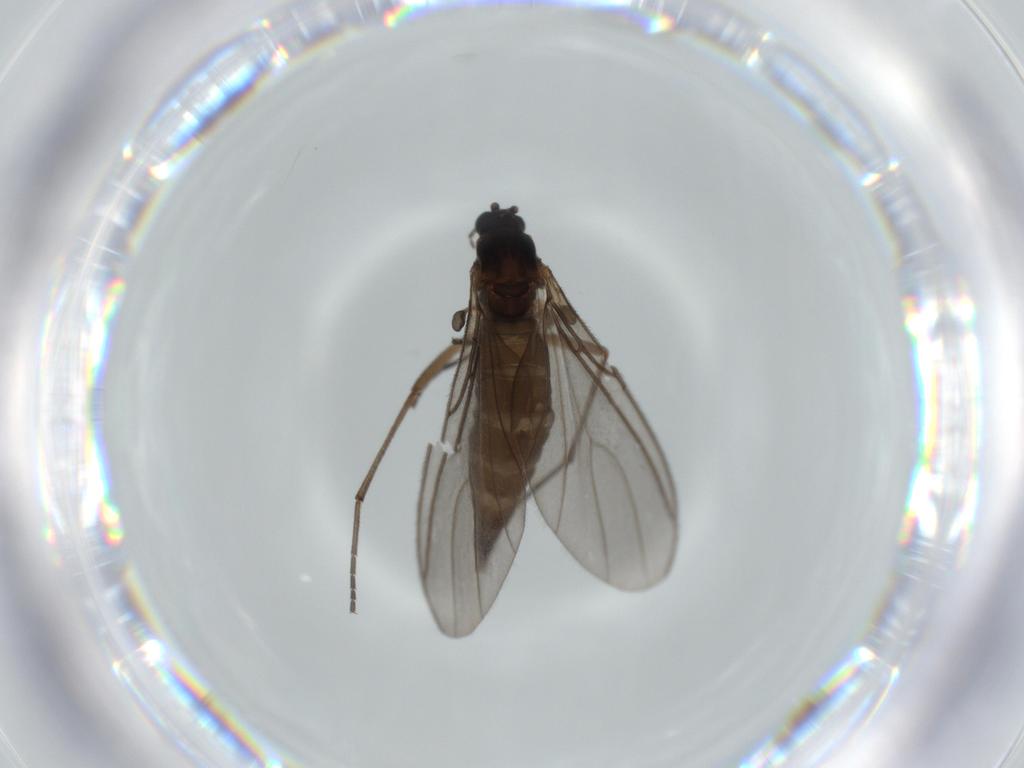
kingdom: Animalia
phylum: Arthropoda
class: Insecta
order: Diptera
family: Sciaridae
